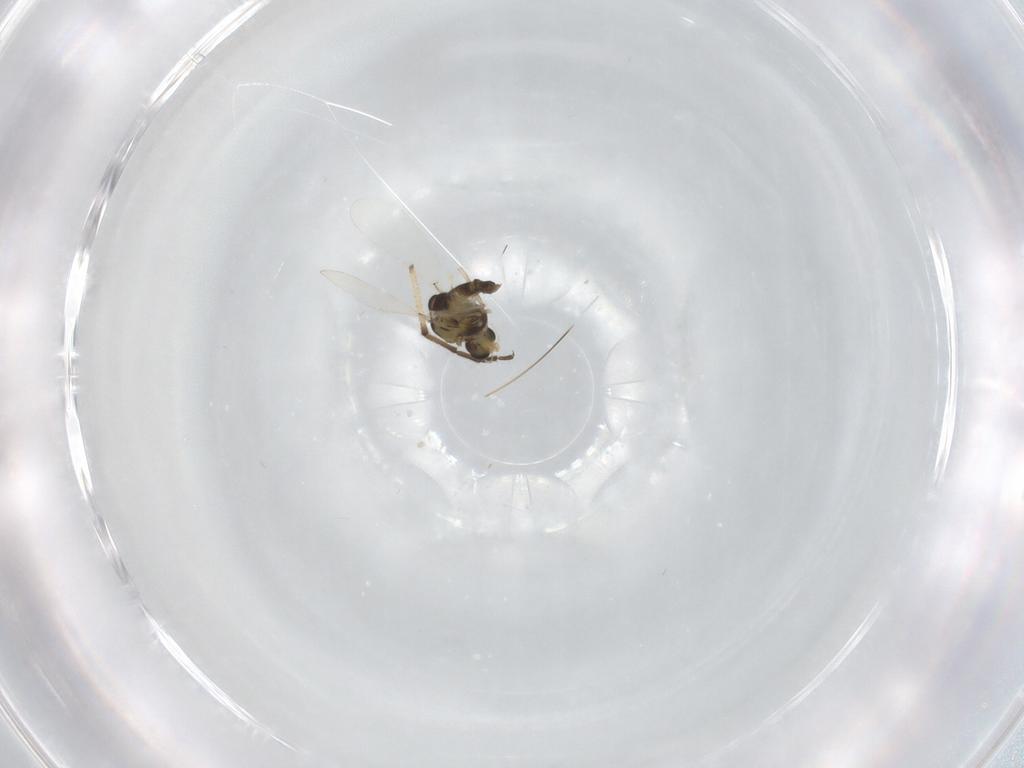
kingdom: Animalia
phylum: Arthropoda
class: Insecta
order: Diptera
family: Chironomidae
